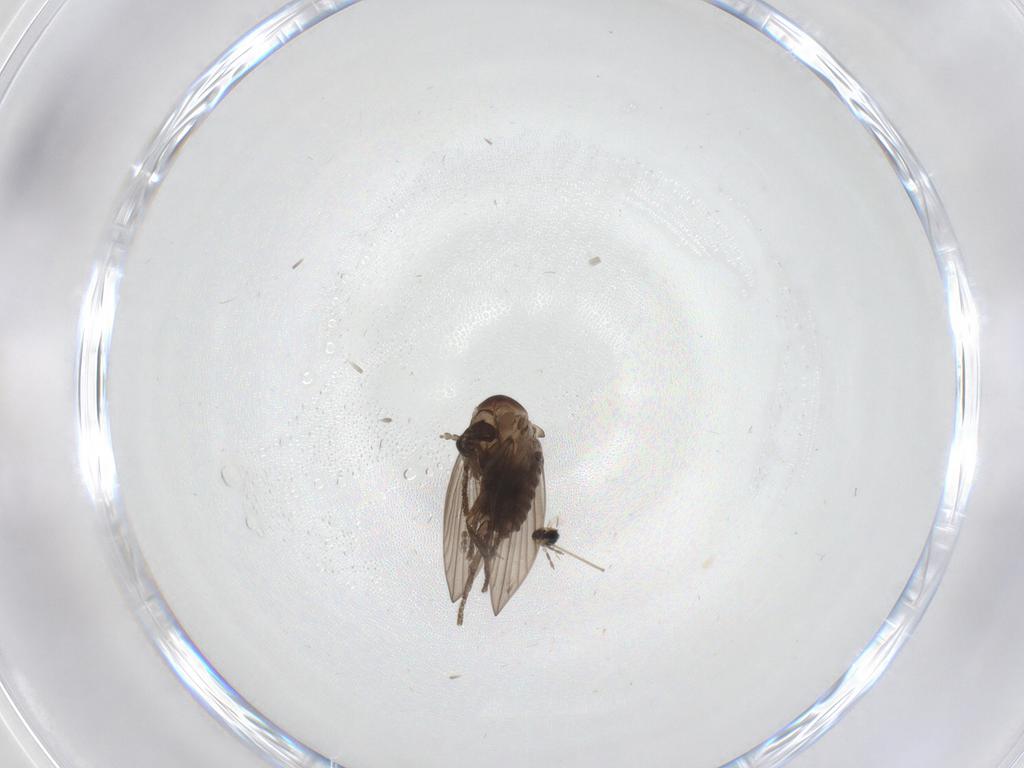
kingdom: Animalia
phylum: Arthropoda
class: Insecta
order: Diptera
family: Psychodidae
